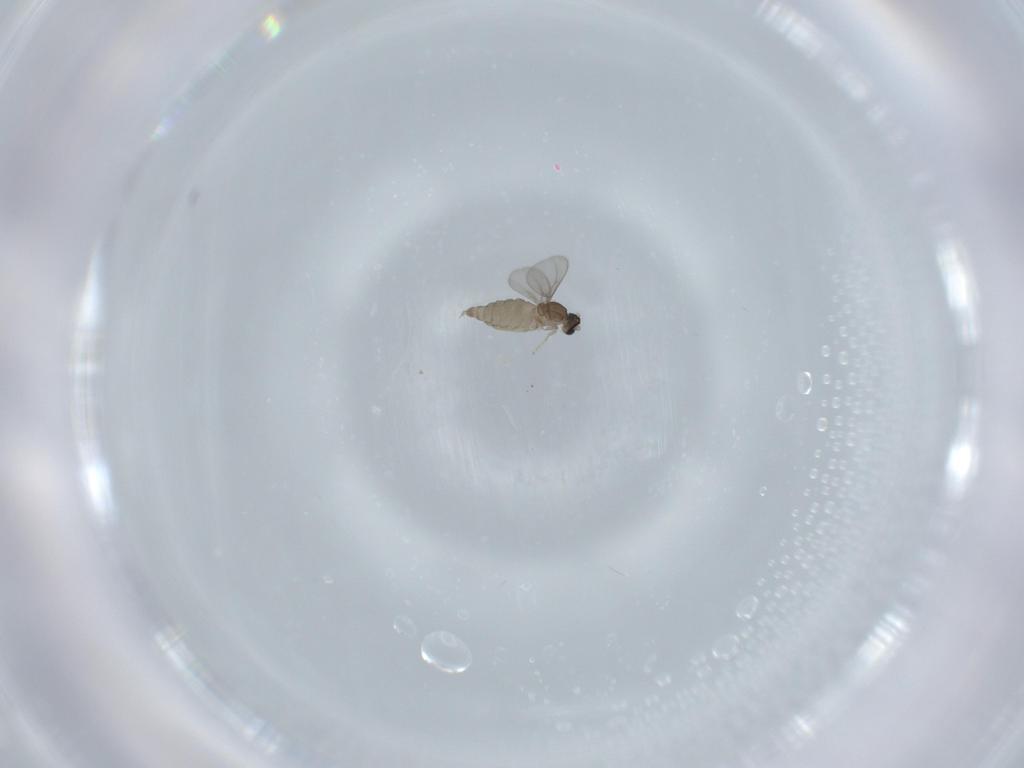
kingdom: Animalia
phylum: Arthropoda
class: Insecta
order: Diptera
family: Cecidomyiidae
